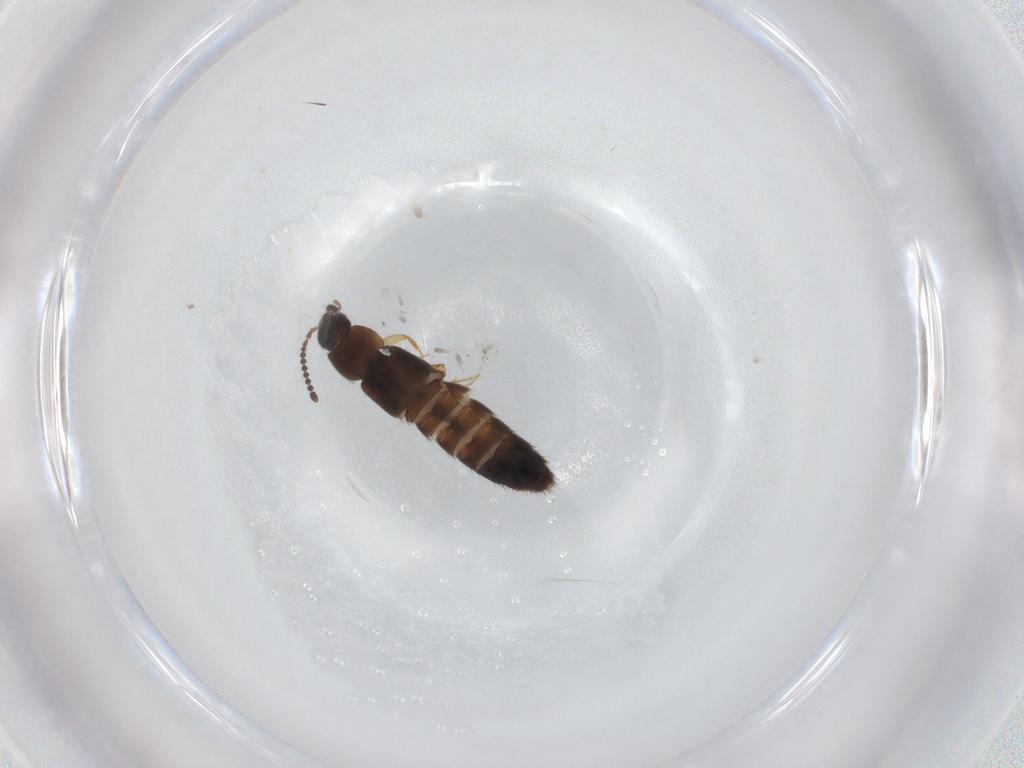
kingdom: Animalia
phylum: Arthropoda
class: Insecta
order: Coleoptera
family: Staphylinidae
